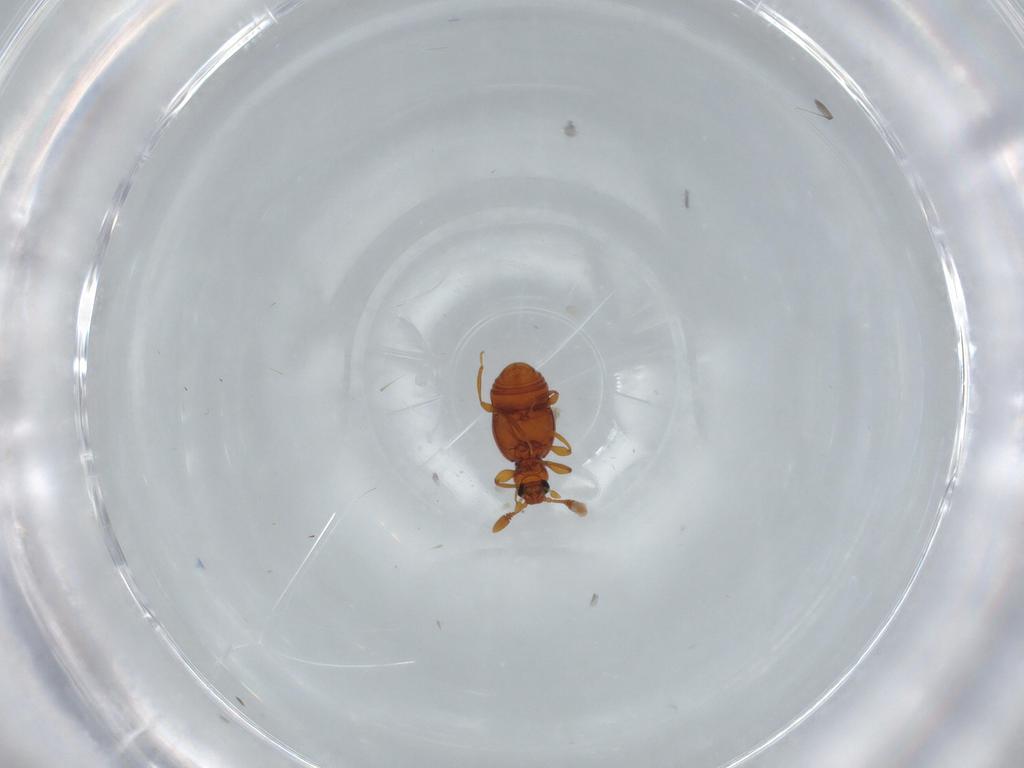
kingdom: Animalia
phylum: Arthropoda
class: Insecta
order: Coleoptera
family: Staphylinidae
